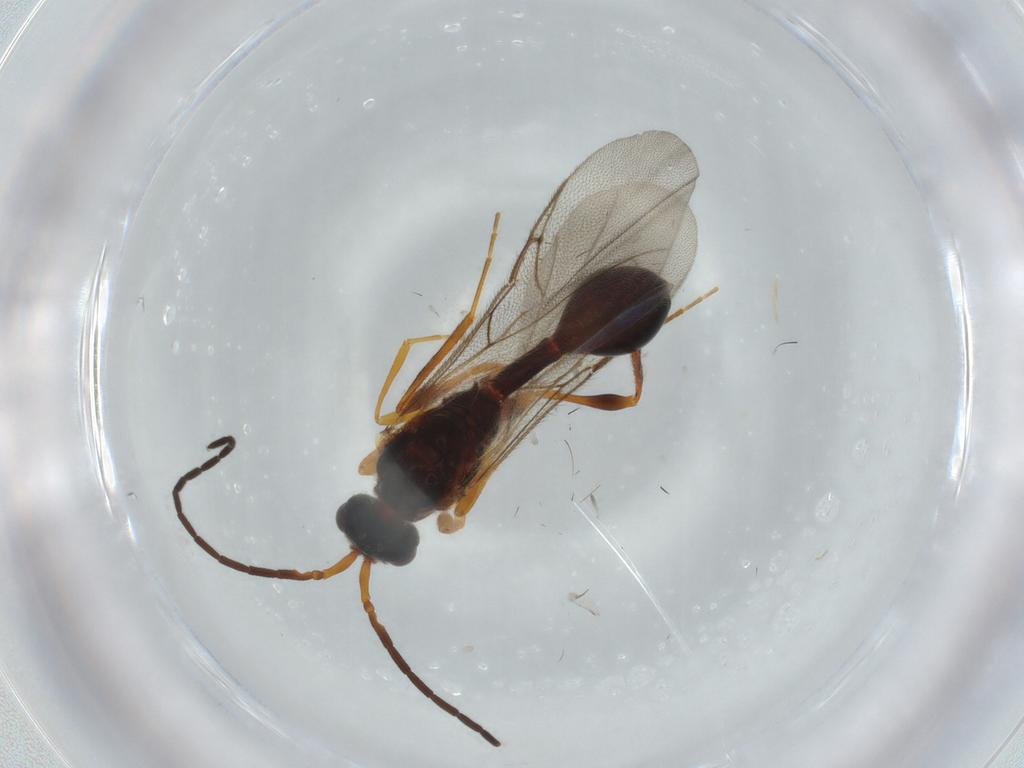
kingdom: Animalia
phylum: Arthropoda
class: Insecta
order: Hymenoptera
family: Diapriidae
